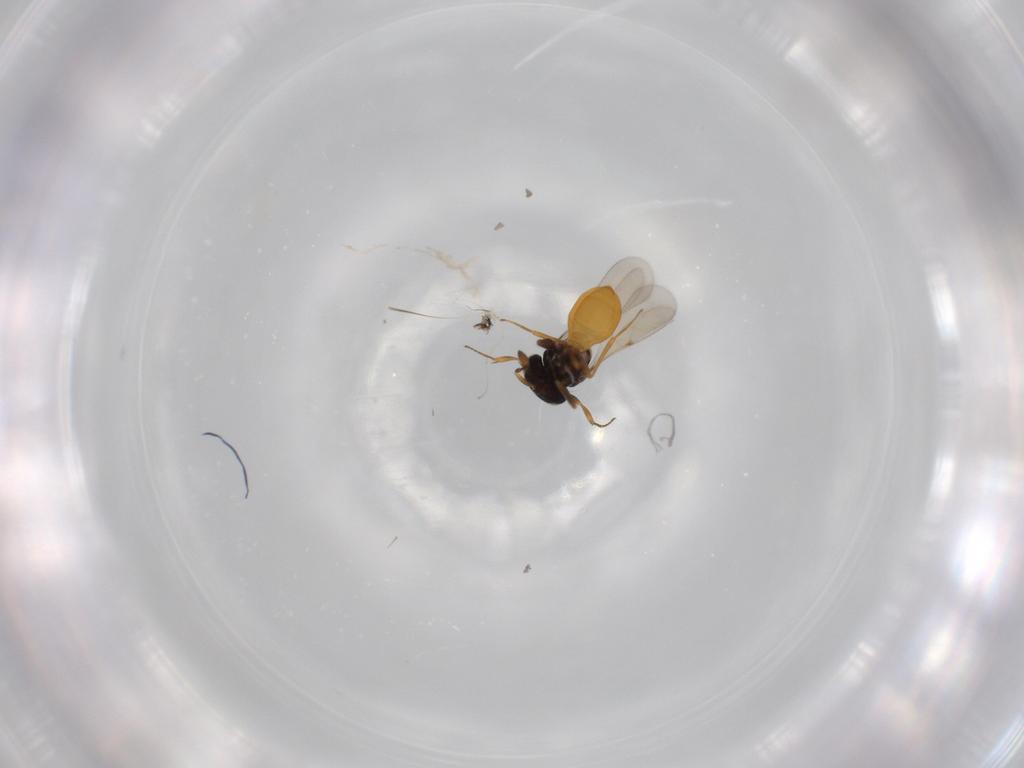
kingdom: Animalia
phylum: Arthropoda
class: Insecta
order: Hymenoptera
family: Scelionidae
